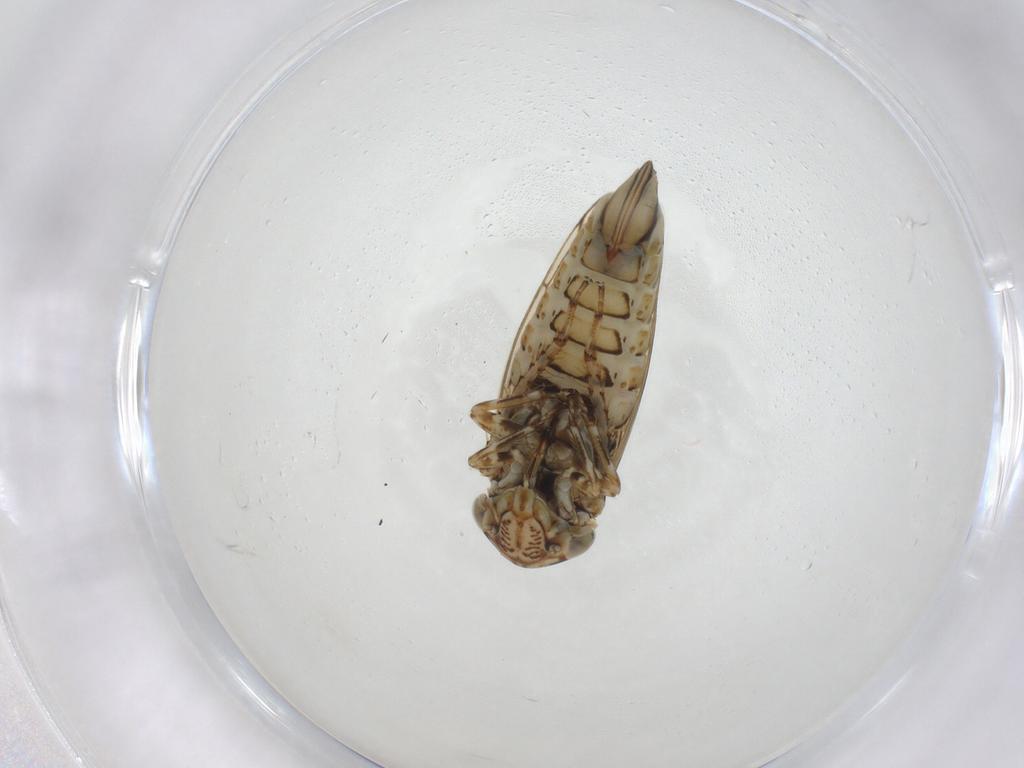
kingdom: Animalia
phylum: Arthropoda
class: Insecta
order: Hemiptera
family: Cicadellidae
